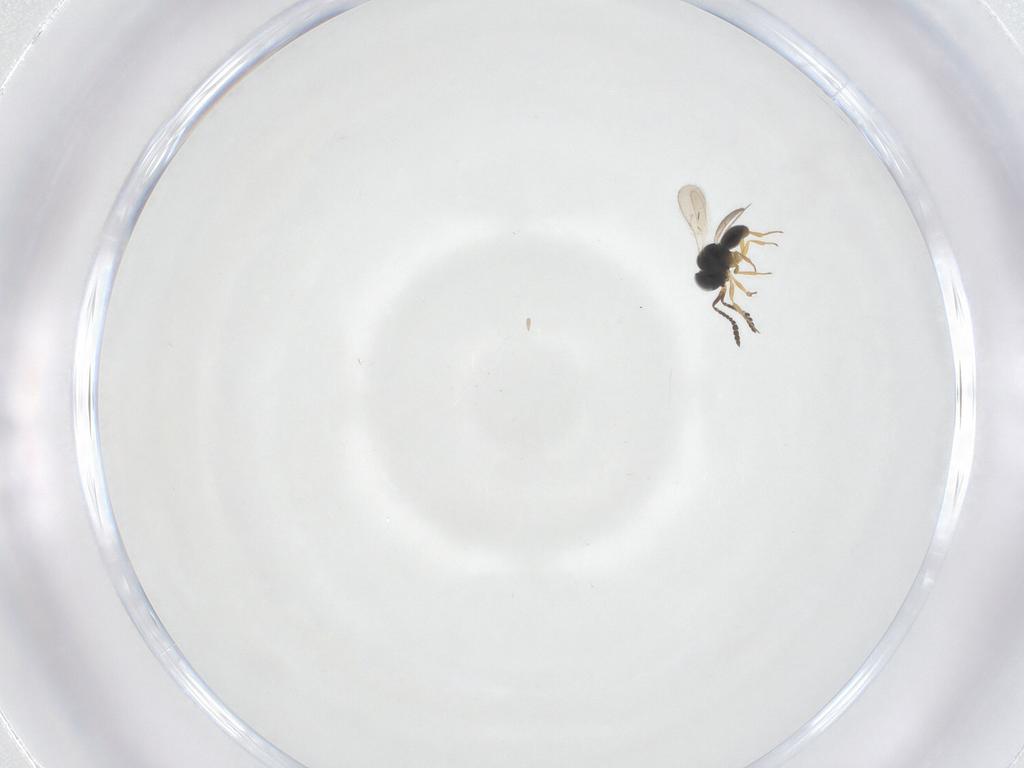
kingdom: Animalia
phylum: Arthropoda
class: Insecta
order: Hymenoptera
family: Scelionidae
